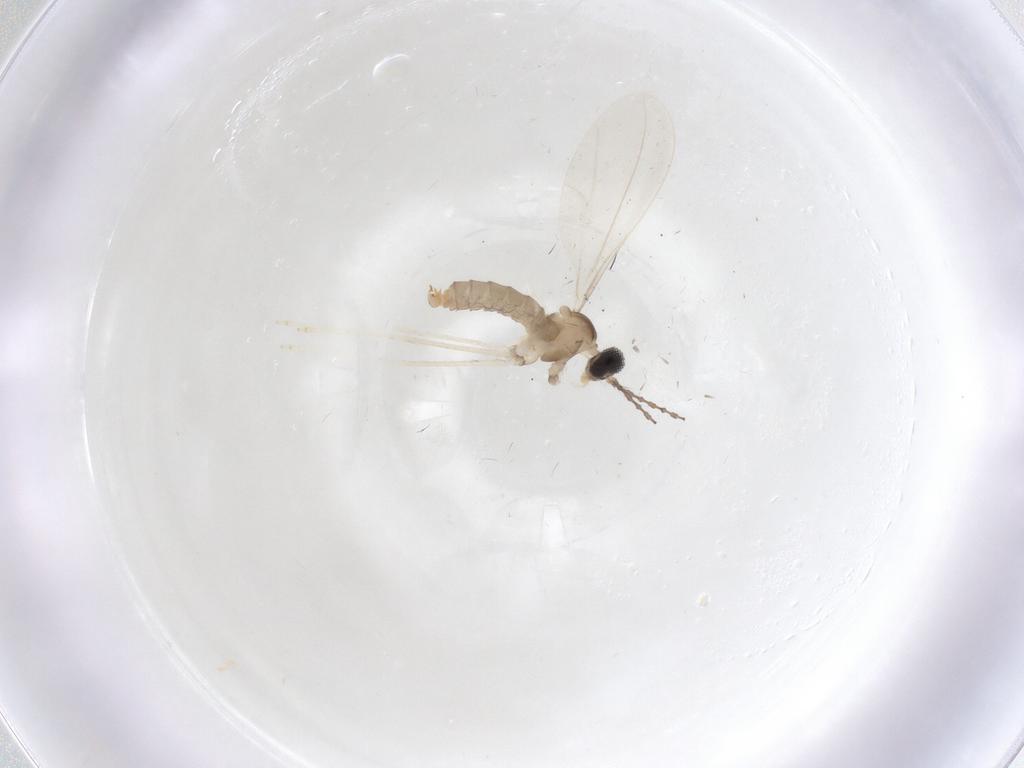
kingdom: Animalia
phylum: Arthropoda
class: Insecta
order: Diptera
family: Cecidomyiidae
